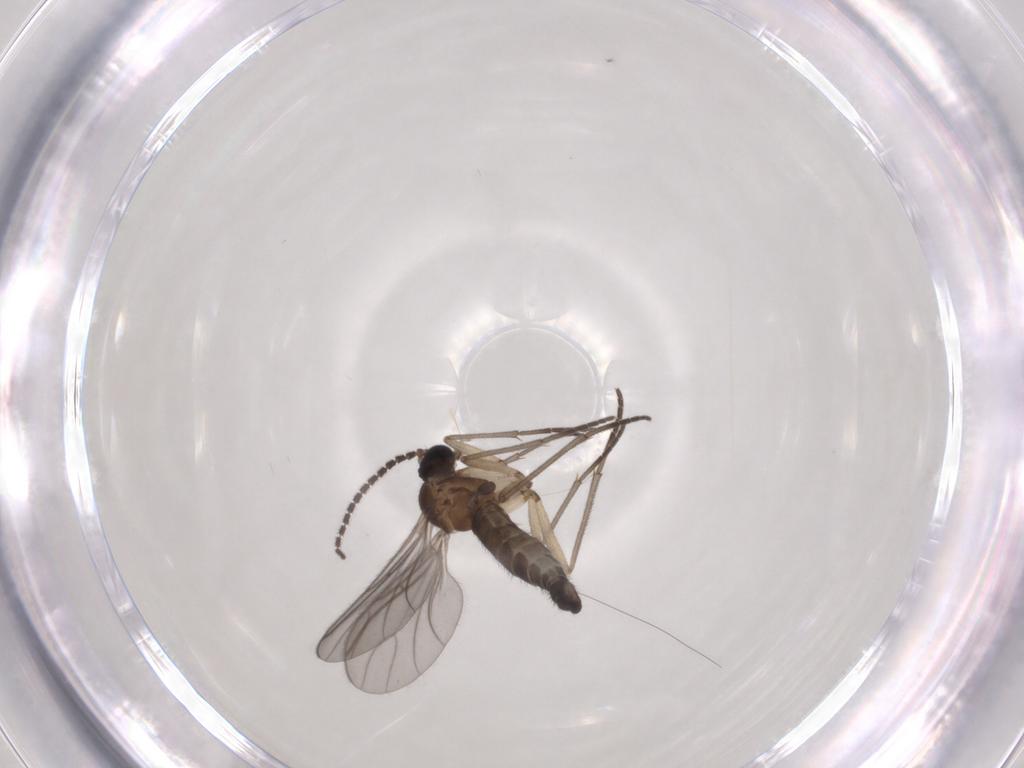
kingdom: Animalia
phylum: Arthropoda
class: Insecta
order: Diptera
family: Sciaridae
